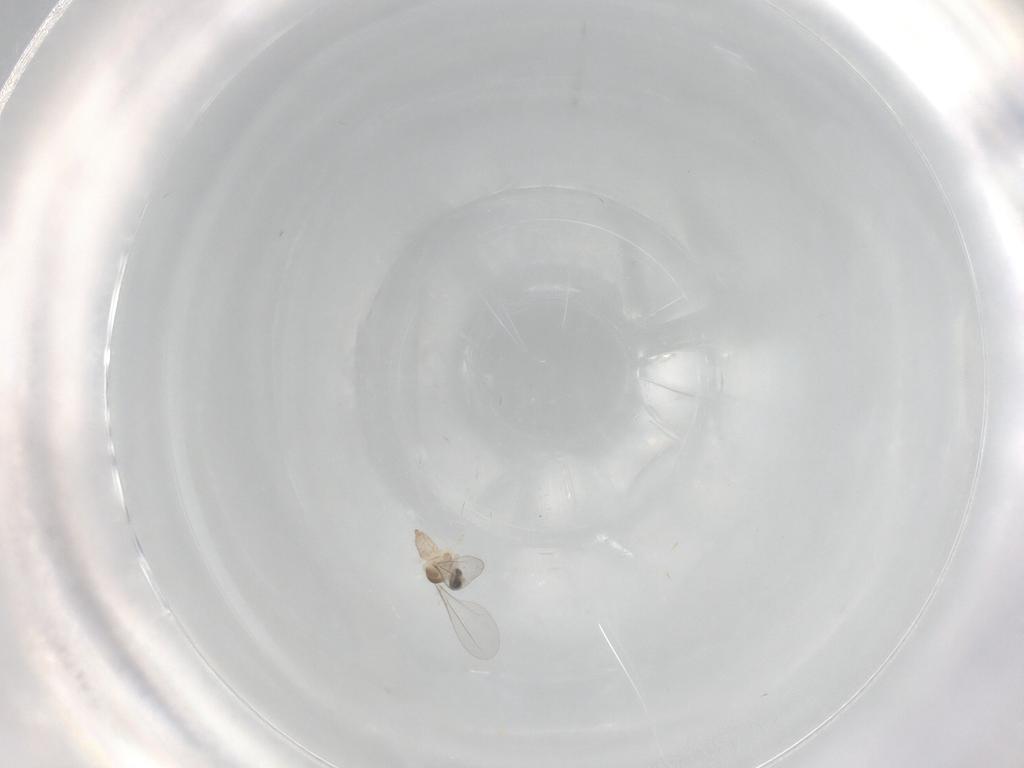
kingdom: Animalia
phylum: Arthropoda
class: Insecta
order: Diptera
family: Cecidomyiidae
